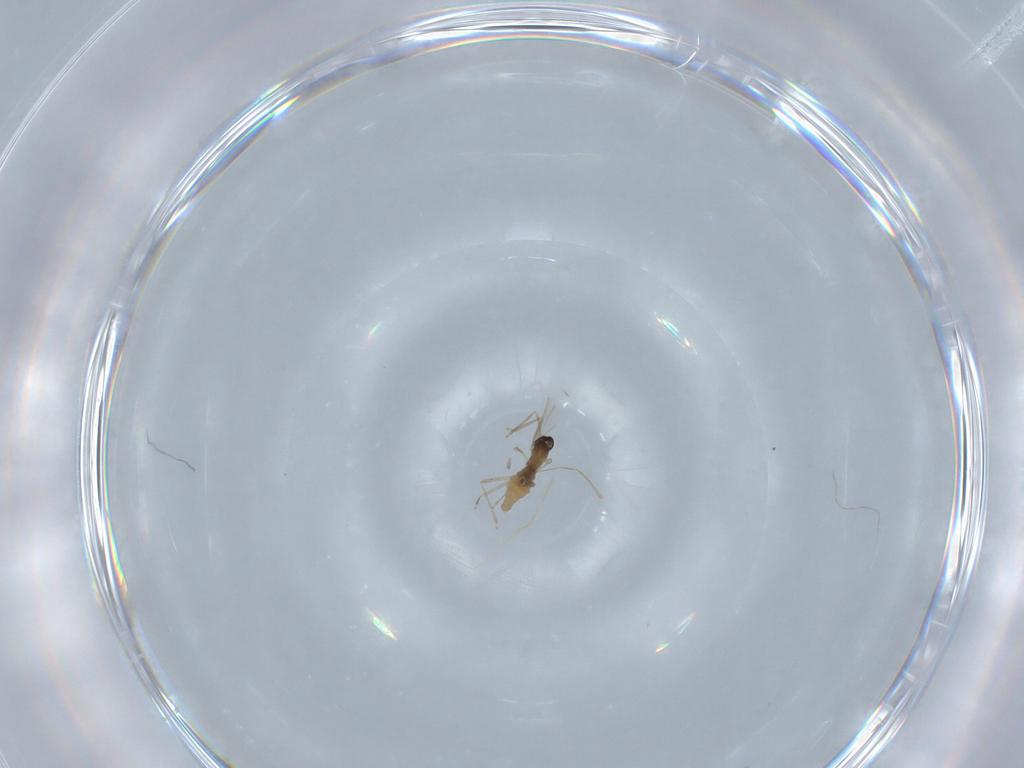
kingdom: Animalia
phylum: Arthropoda
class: Insecta
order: Diptera
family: Cecidomyiidae
